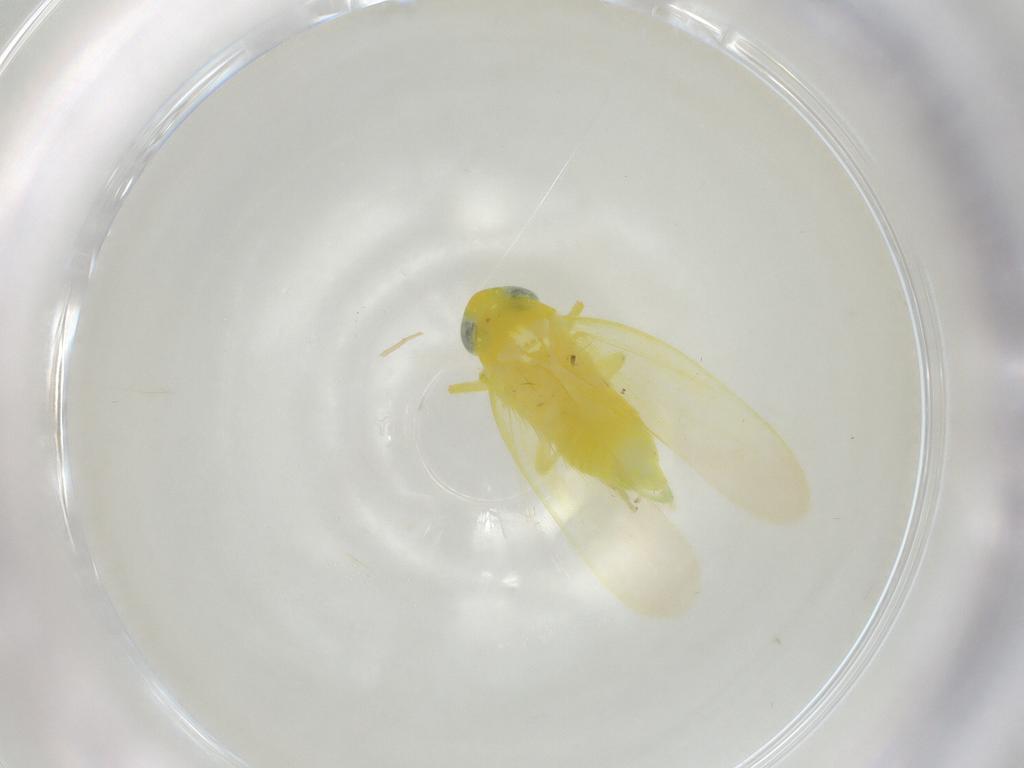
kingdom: Animalia
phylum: Arthropoda
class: Insecta
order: Hemiptera
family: Cicadellidae
